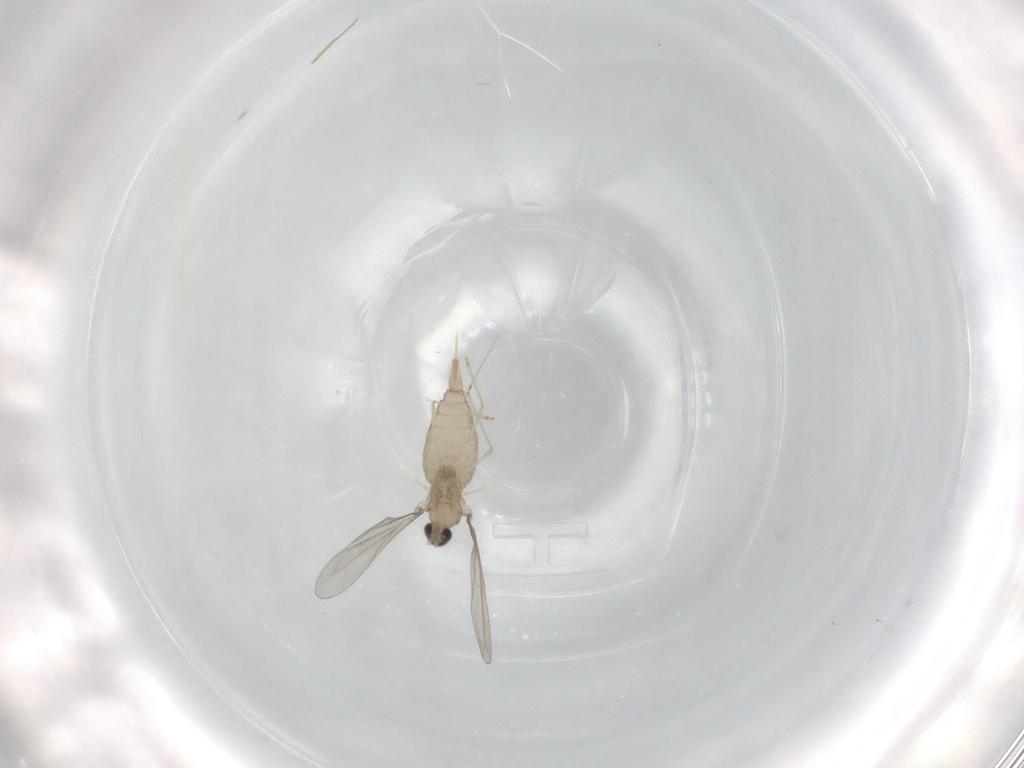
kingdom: Animalia
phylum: Arthropoda
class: Insecta
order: Diptera
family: Cecidomyiidae
